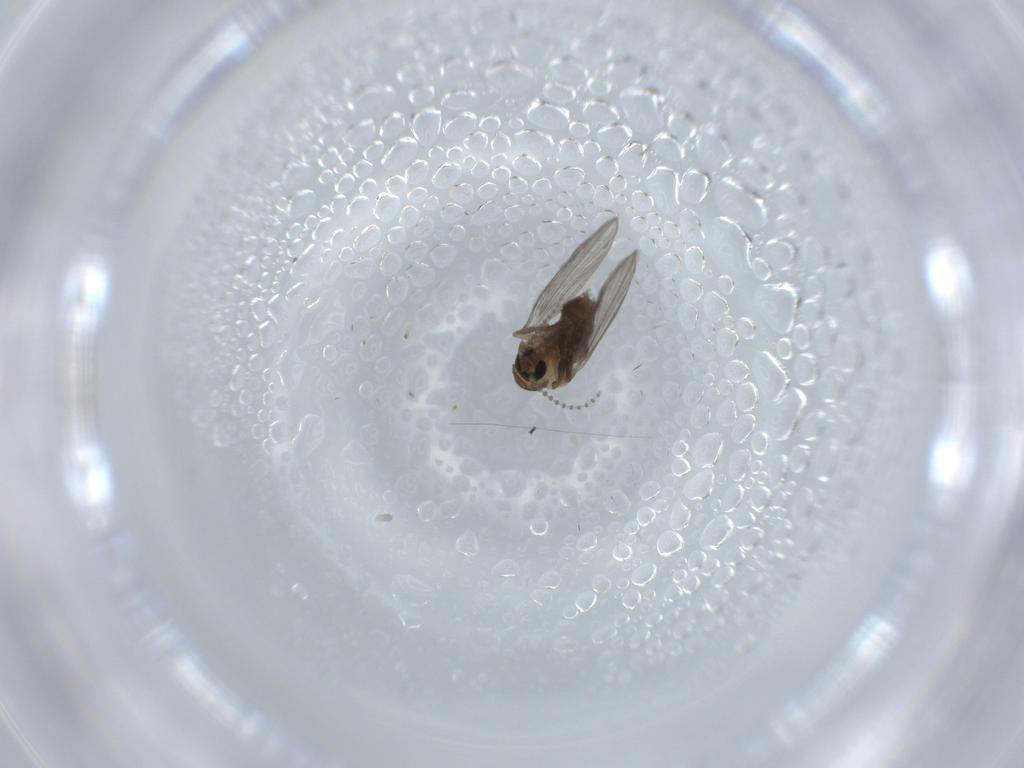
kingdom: Animalia
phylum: Arthropoda
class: Insecta
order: Diptera
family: Psychodidae
